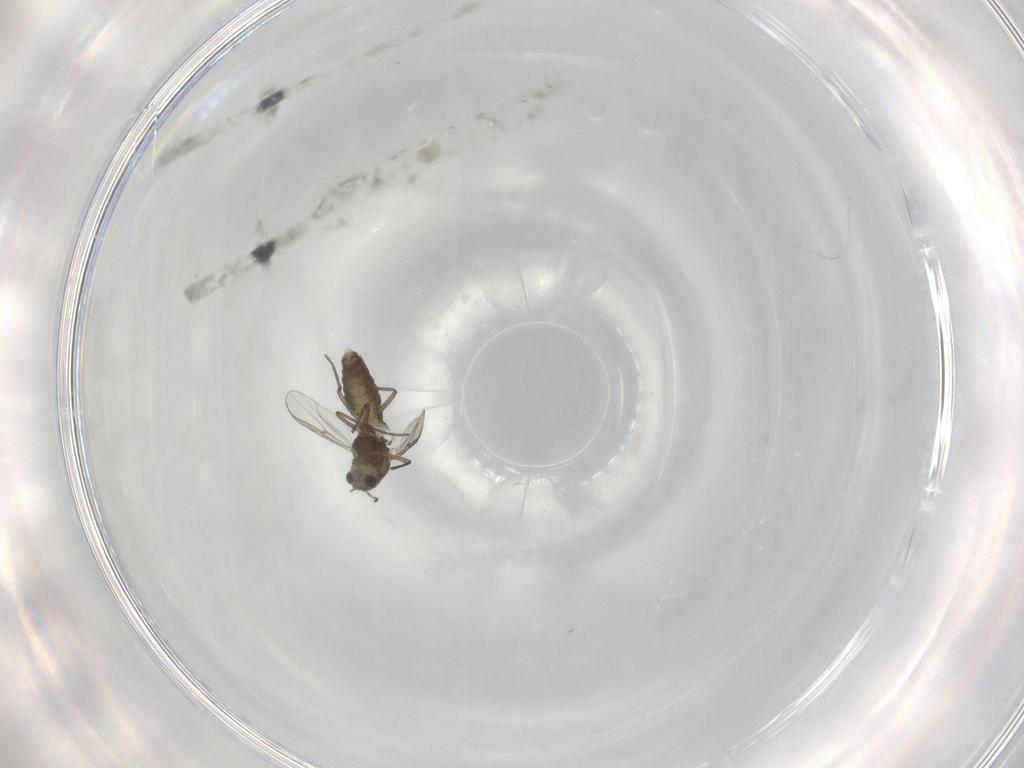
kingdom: Animalia
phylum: Arthropoda
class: Insecta
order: Diptera
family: Keroplatidae
